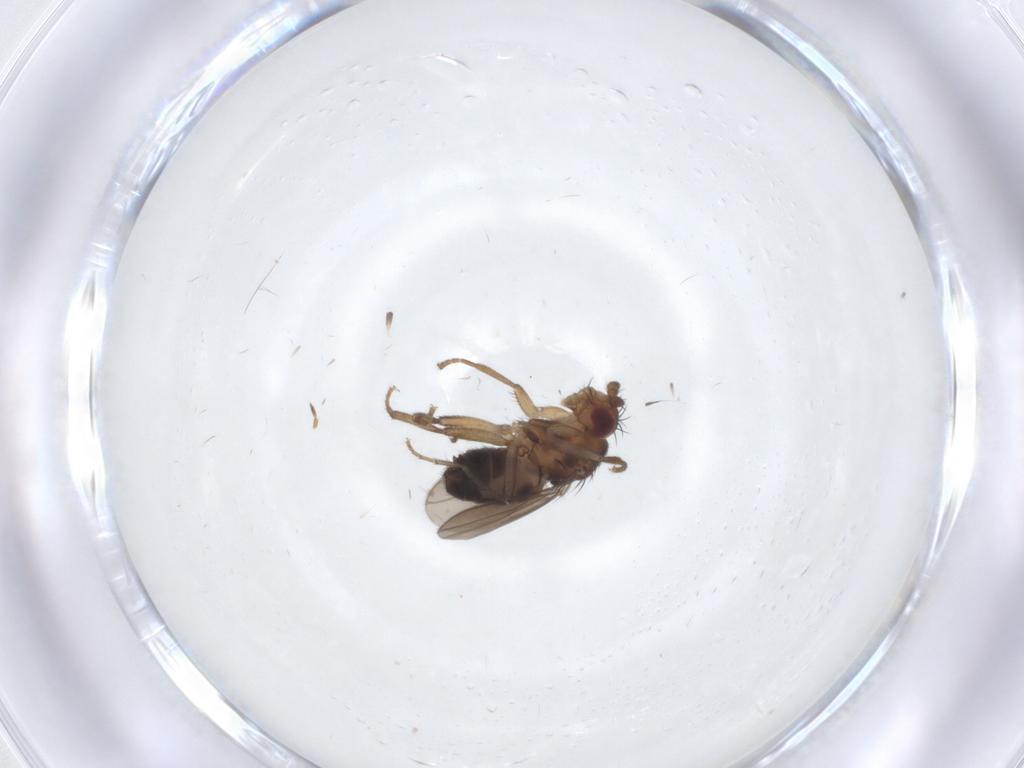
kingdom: Animalia
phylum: Arthropoda
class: Insecta
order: Diptera
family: Sphaeroceridae
